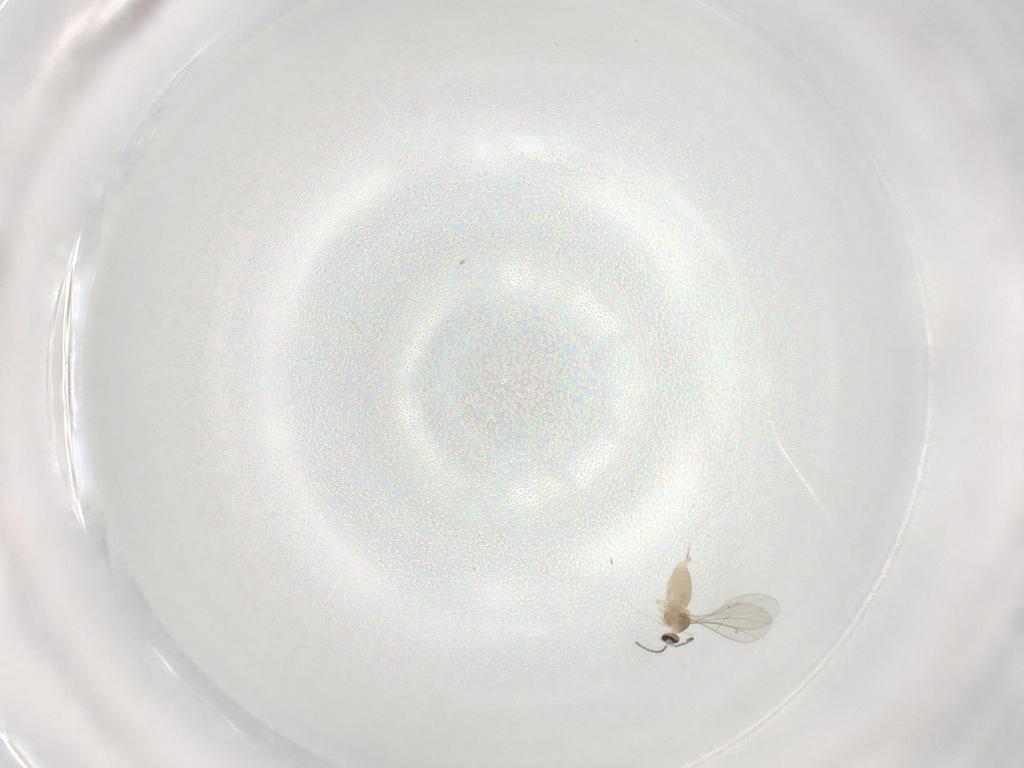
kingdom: Animalia
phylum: Arthropoda
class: Insecta
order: Diptera
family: Cecidomyiidae
